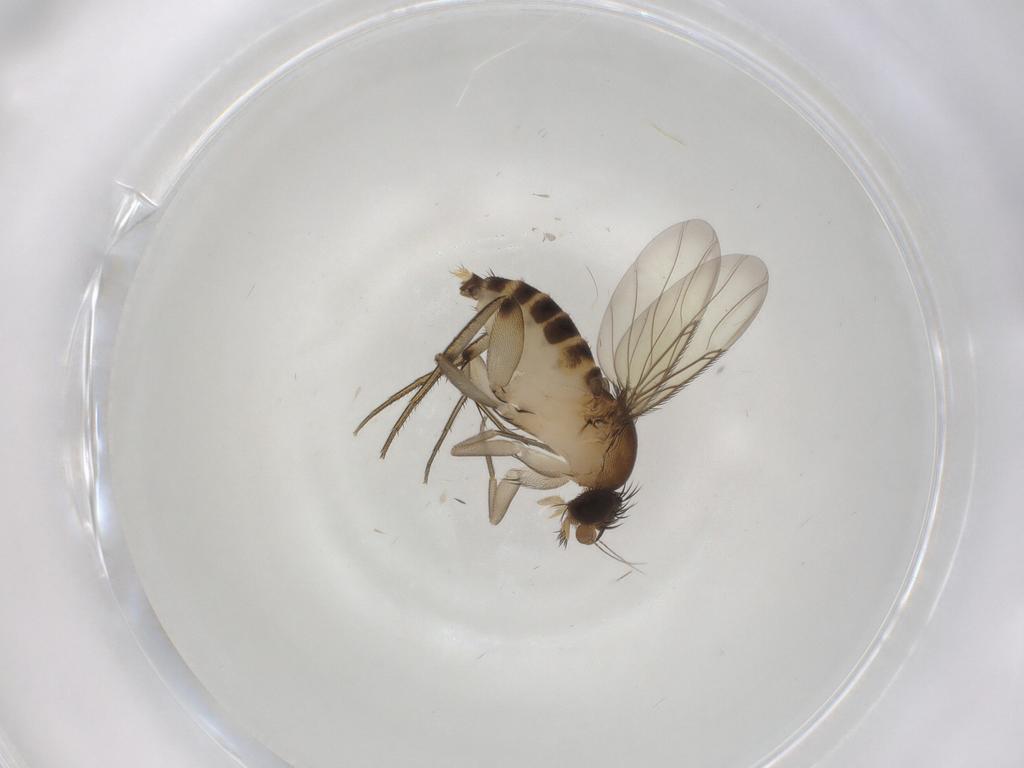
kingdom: Animalia
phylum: Arthropoda
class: Insecta
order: Diptera
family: Phoridae
